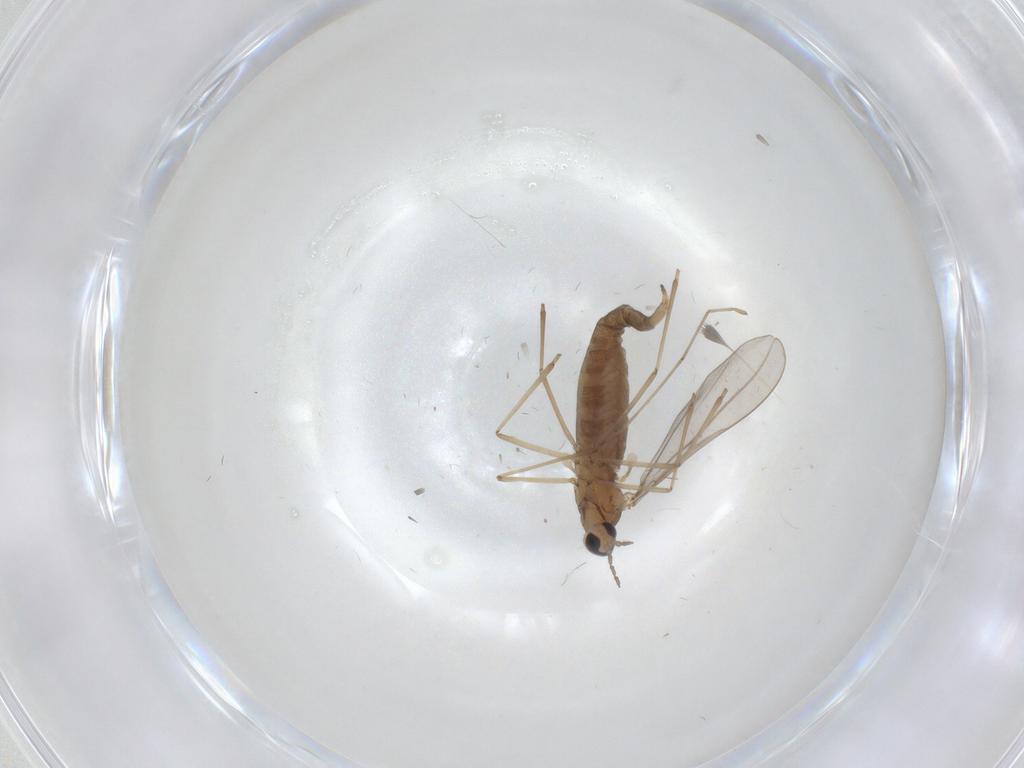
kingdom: Animalia
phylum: Arthropoda
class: Insecta
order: Diptera
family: Cecidomyiidae
